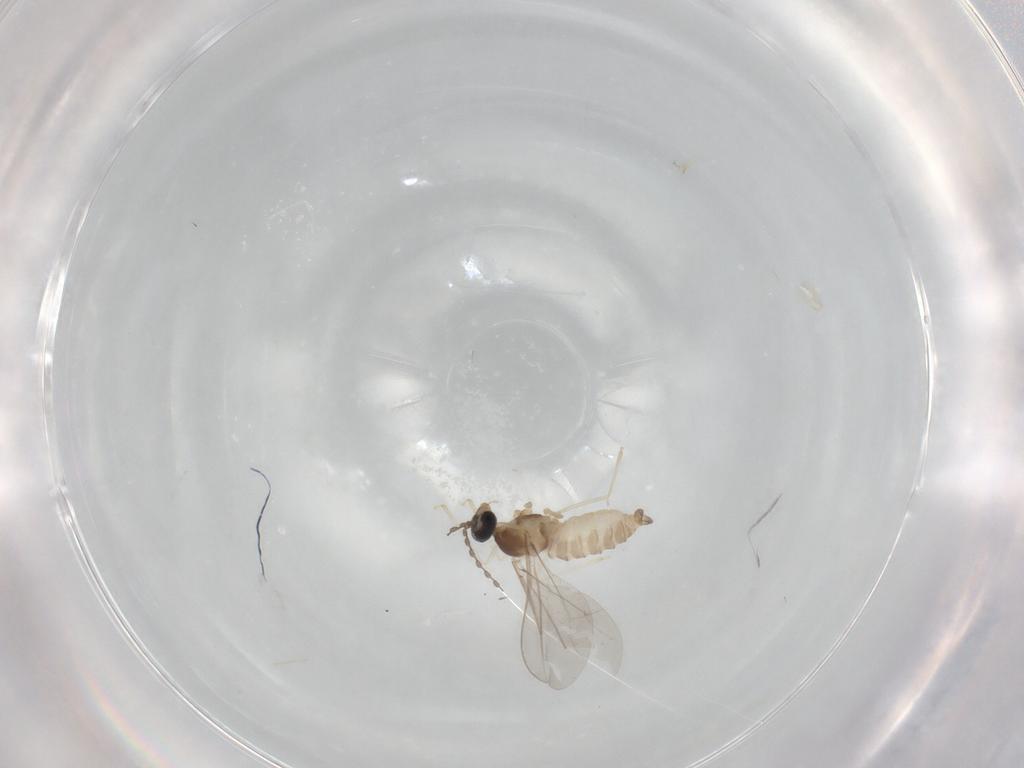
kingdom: Animalia
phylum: Arthropoda
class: Insecta
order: Diptera
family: Cecidomyiidae
